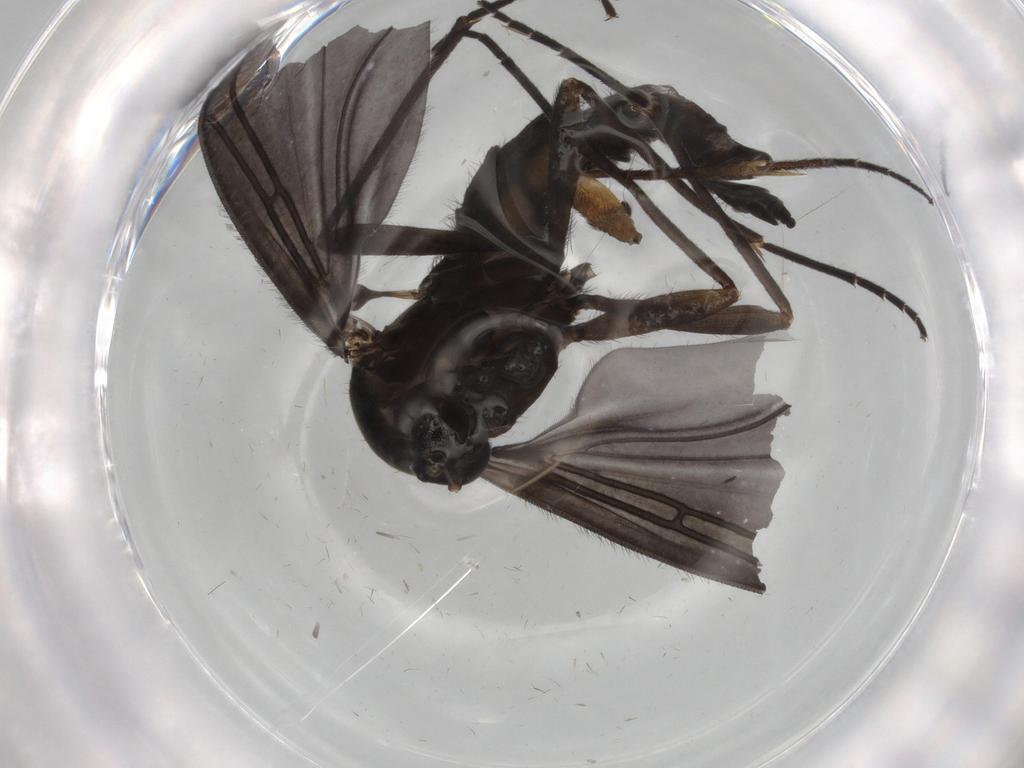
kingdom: Animalia
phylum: Arthropoda
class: Insecta
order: Diptera
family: Sciaridae
